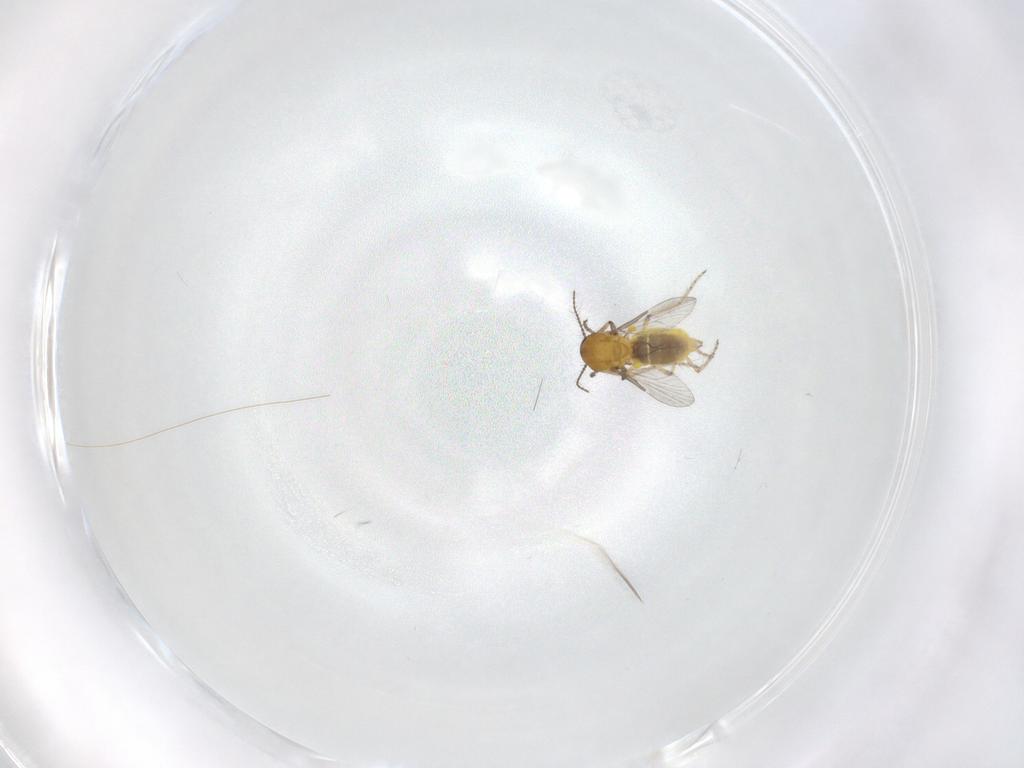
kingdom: Animalia
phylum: Arthropoda
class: Insecta
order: Diptera
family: Ceratopogonidae
